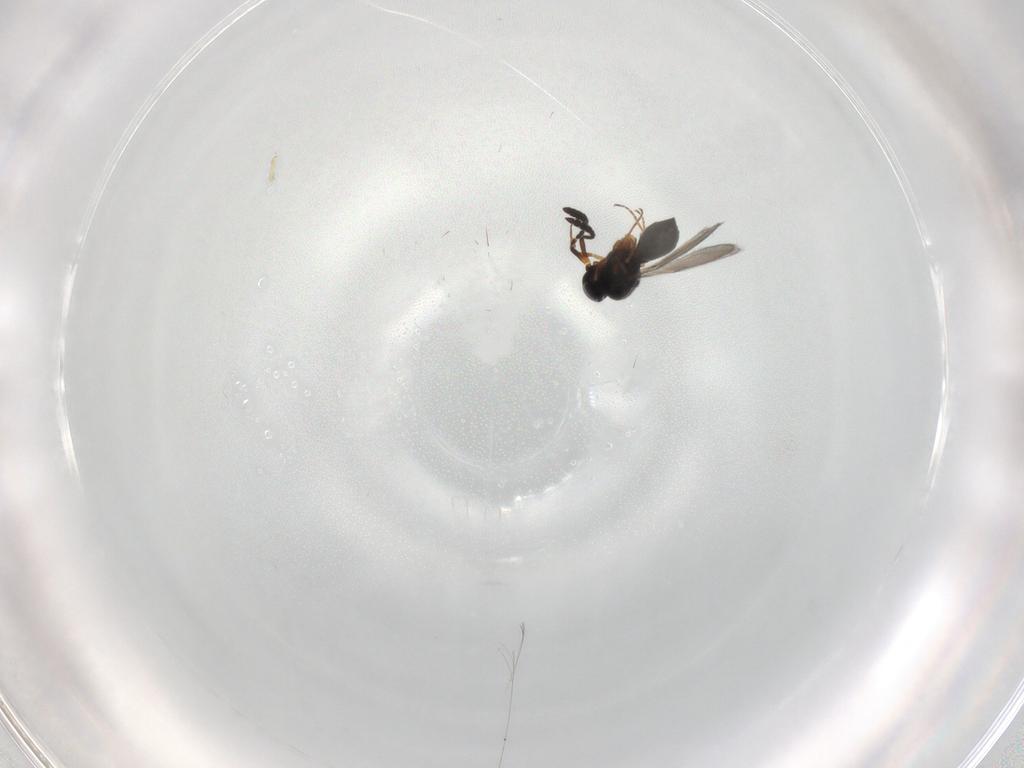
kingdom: Animalia
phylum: Arthropoda
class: Insecta
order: Hymenoptera
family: Scelionidae
